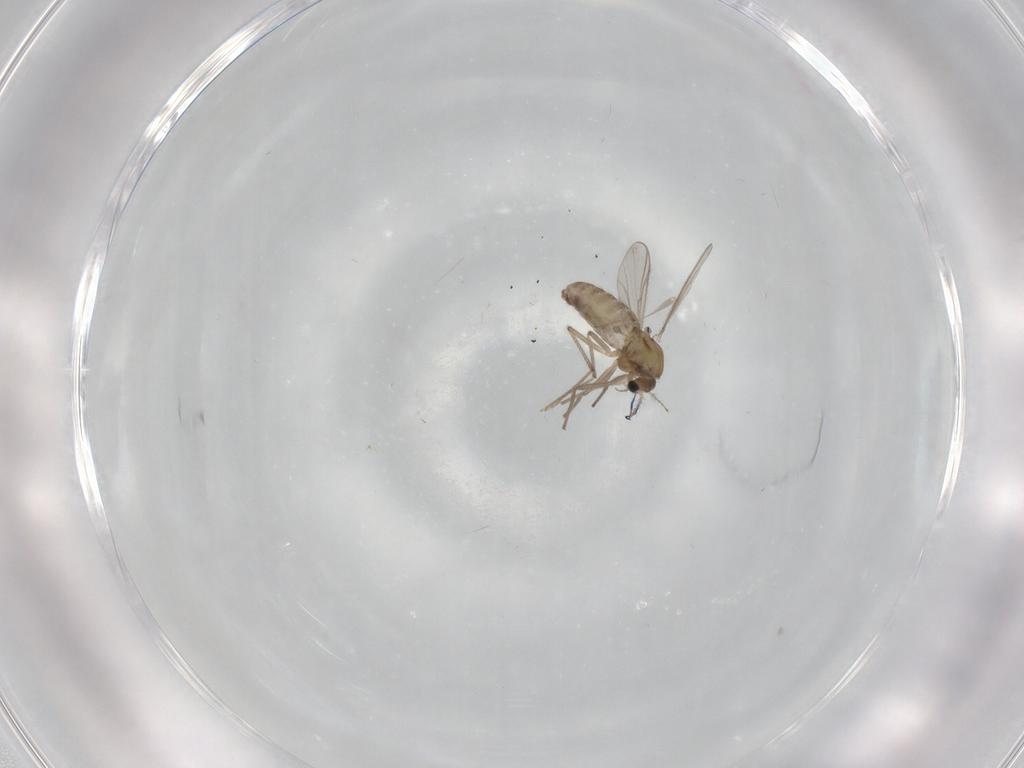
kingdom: Animalia
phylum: Arthropoda
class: Insecta
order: Diptera
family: Chironomidae
